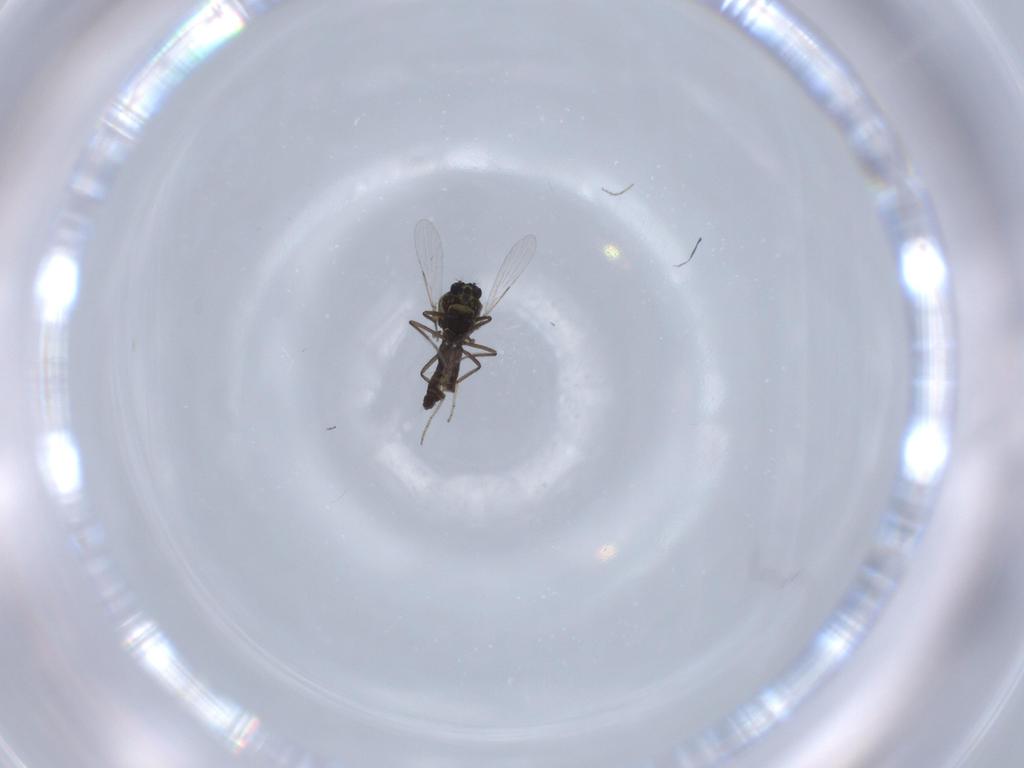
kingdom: Animalia
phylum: Arthropoda
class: Insecta
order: Diptera
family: Ceratopogonidae
